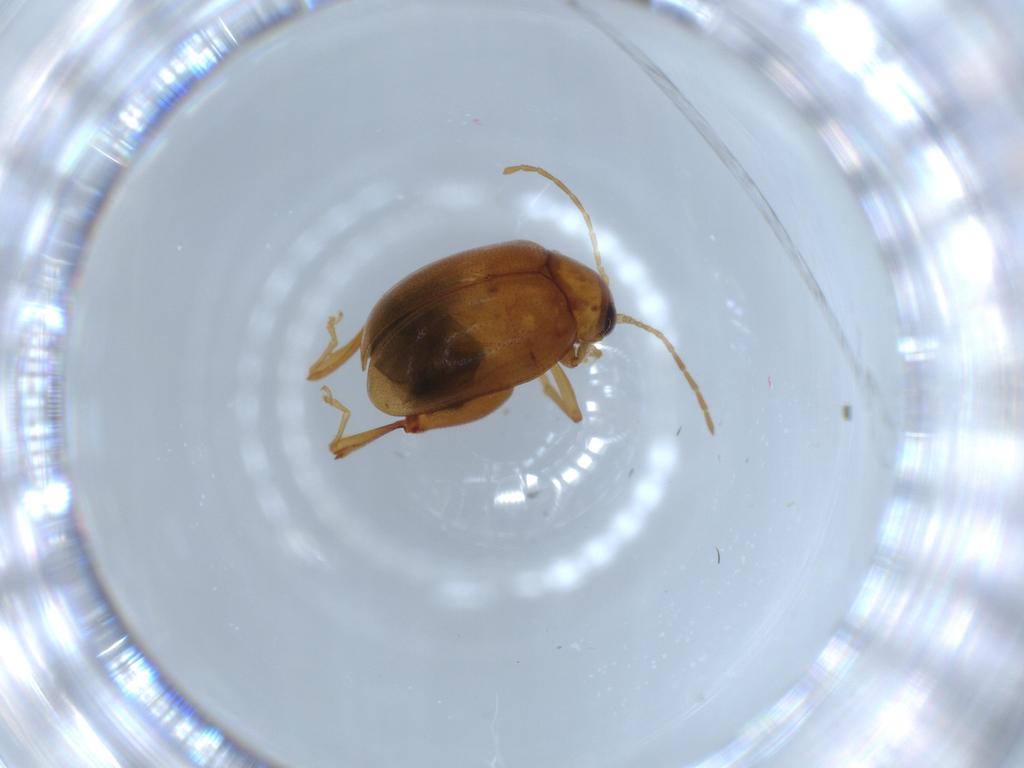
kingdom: Animalia
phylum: Arthropoda
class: Insecta
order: Coleoptera
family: Chrysomelidae
